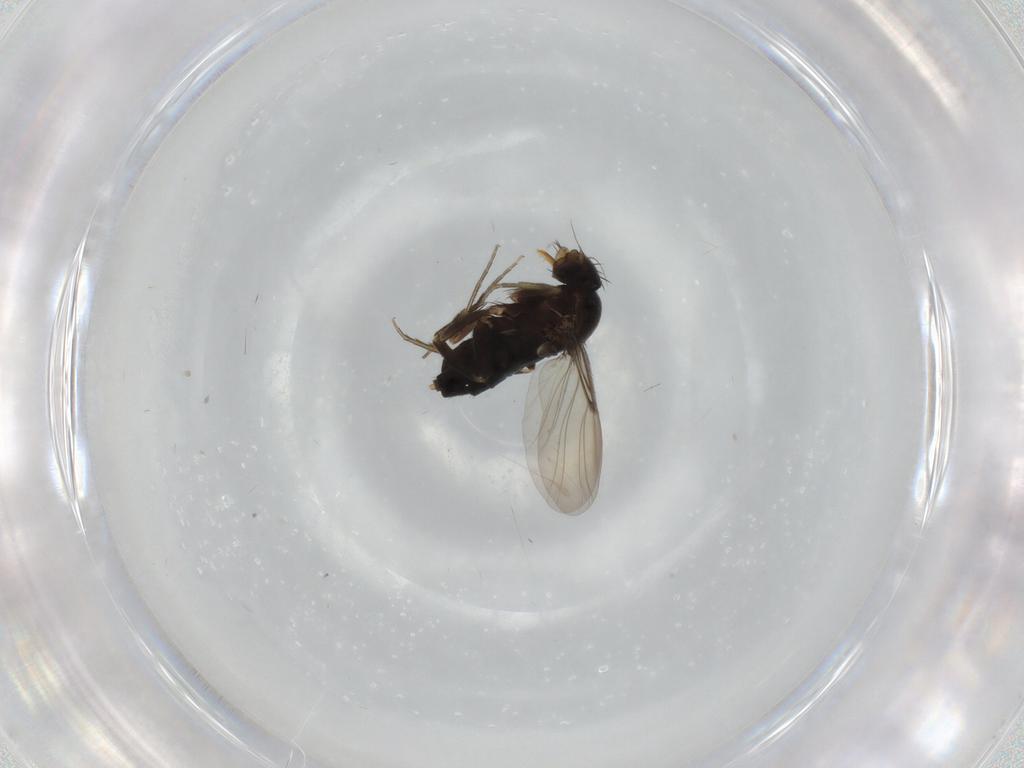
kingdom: Animalia
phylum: Arthropoda
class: Insecta
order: Diptera
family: Phoridae
